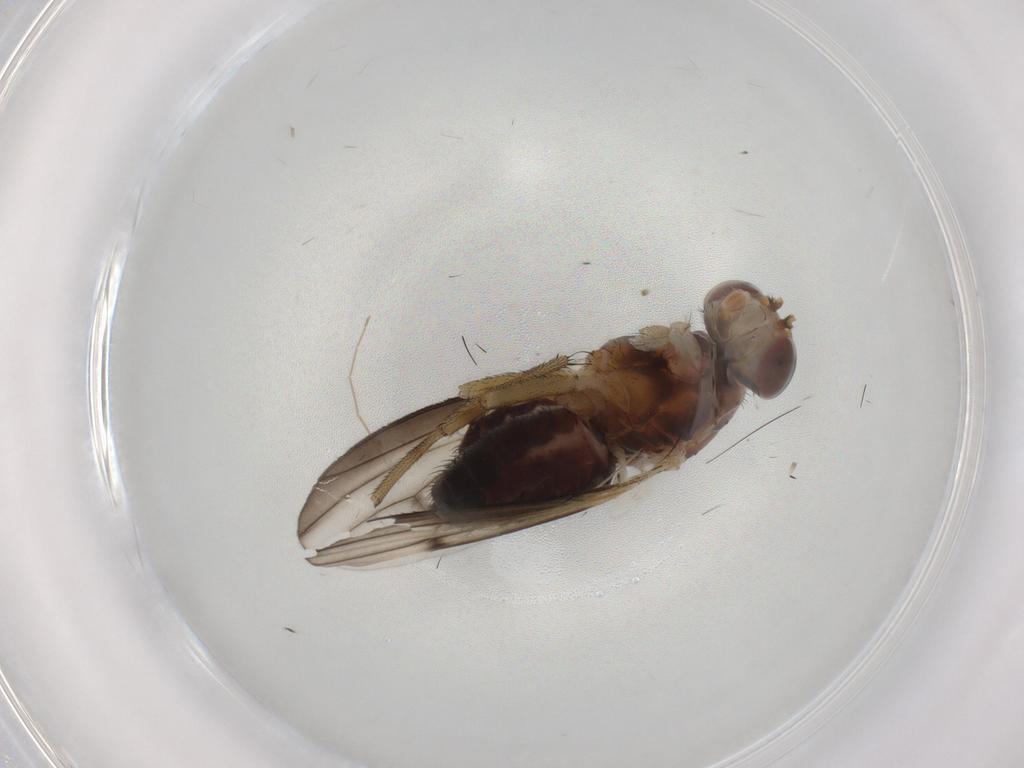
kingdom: Animalia
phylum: Arthropoda
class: Insecta
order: Diptera
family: Heleomyzidae
